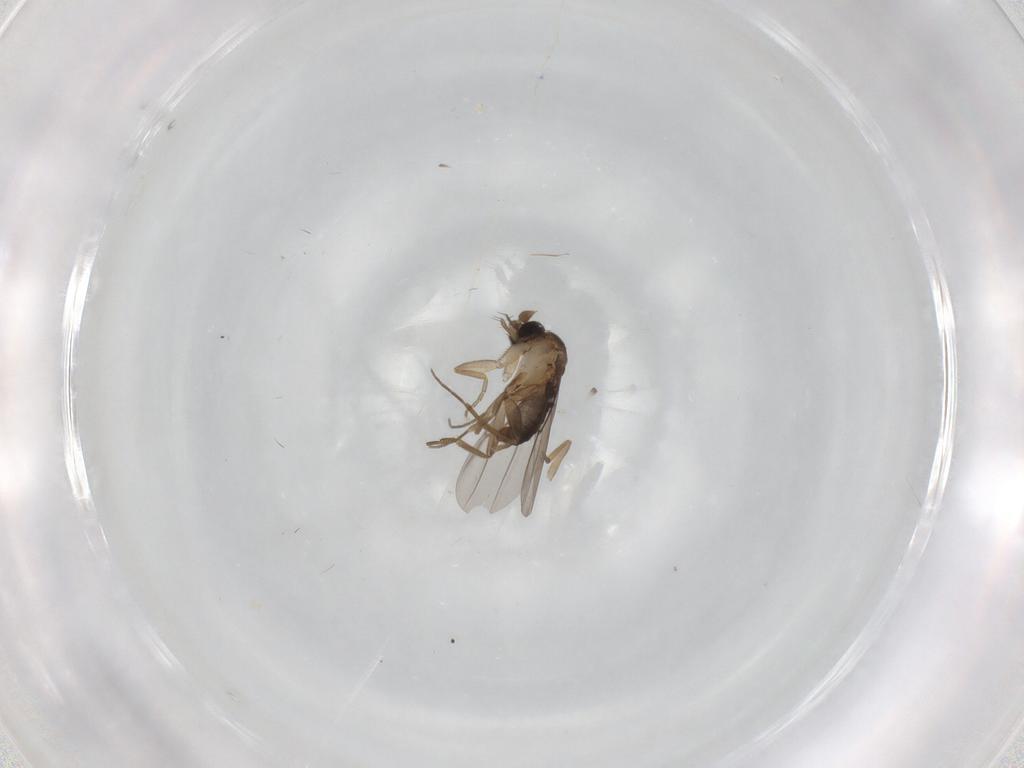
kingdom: Animalia
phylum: Arthropoda
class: Insecta
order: Diptera
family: Phoridae
